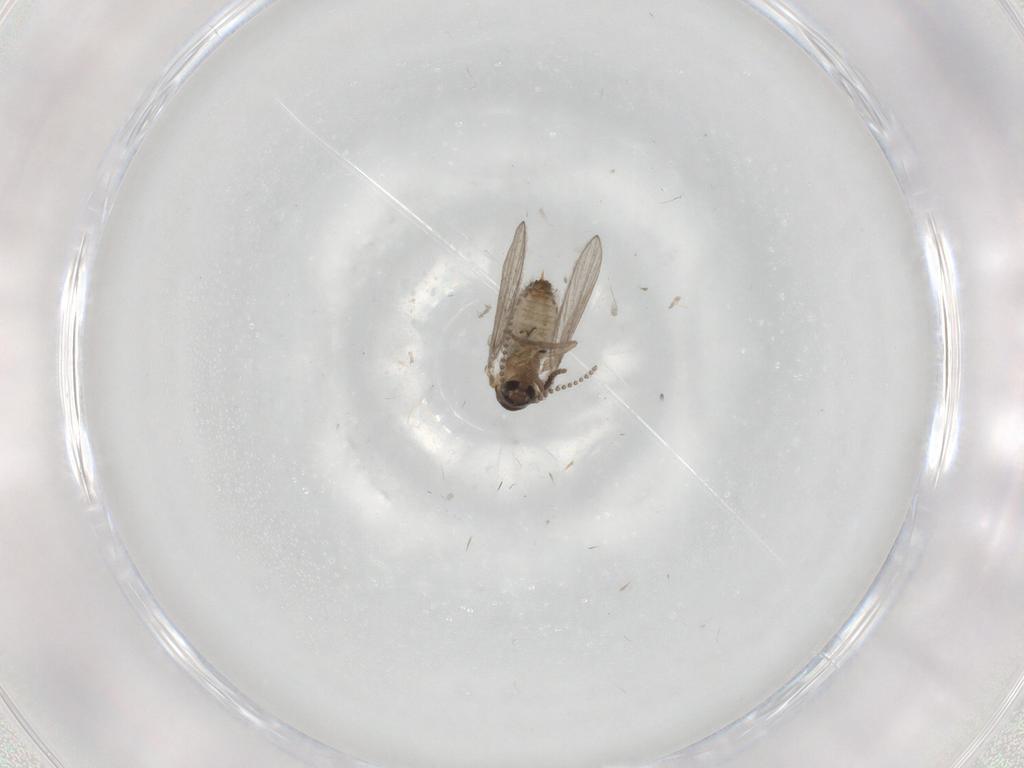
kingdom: Animalia
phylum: Arthropoda
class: Insecta
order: Diptera
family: Psychodidae
